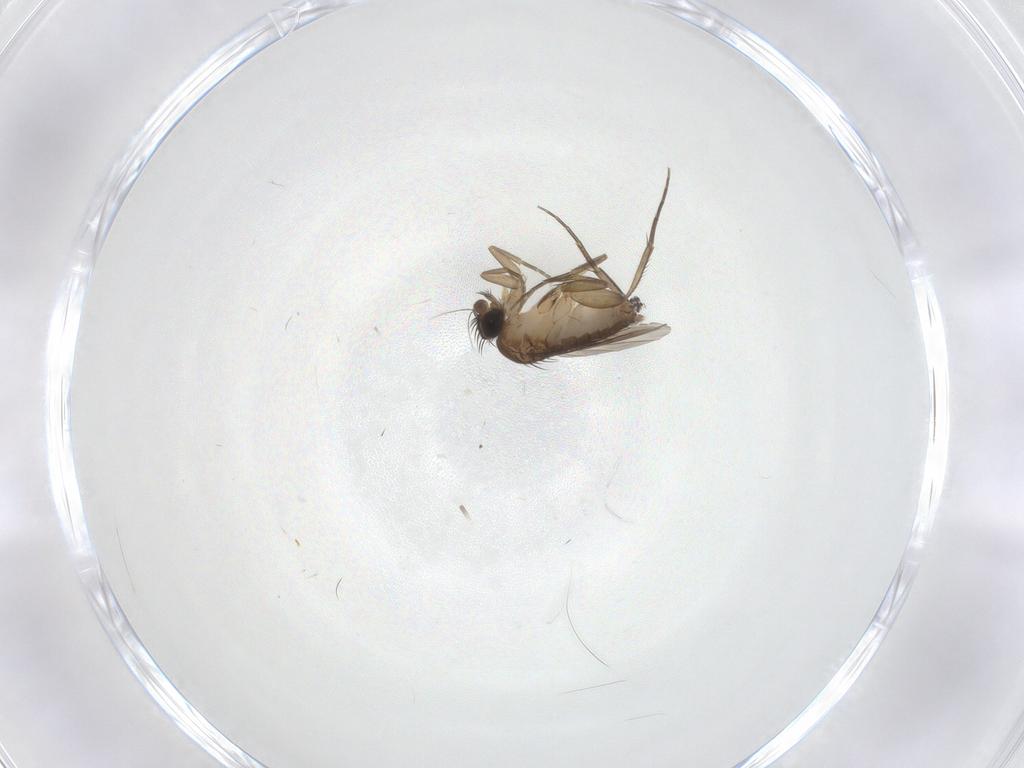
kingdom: Animalia
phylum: Arthropoda
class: Insecta
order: Diptera
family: Phoridae
